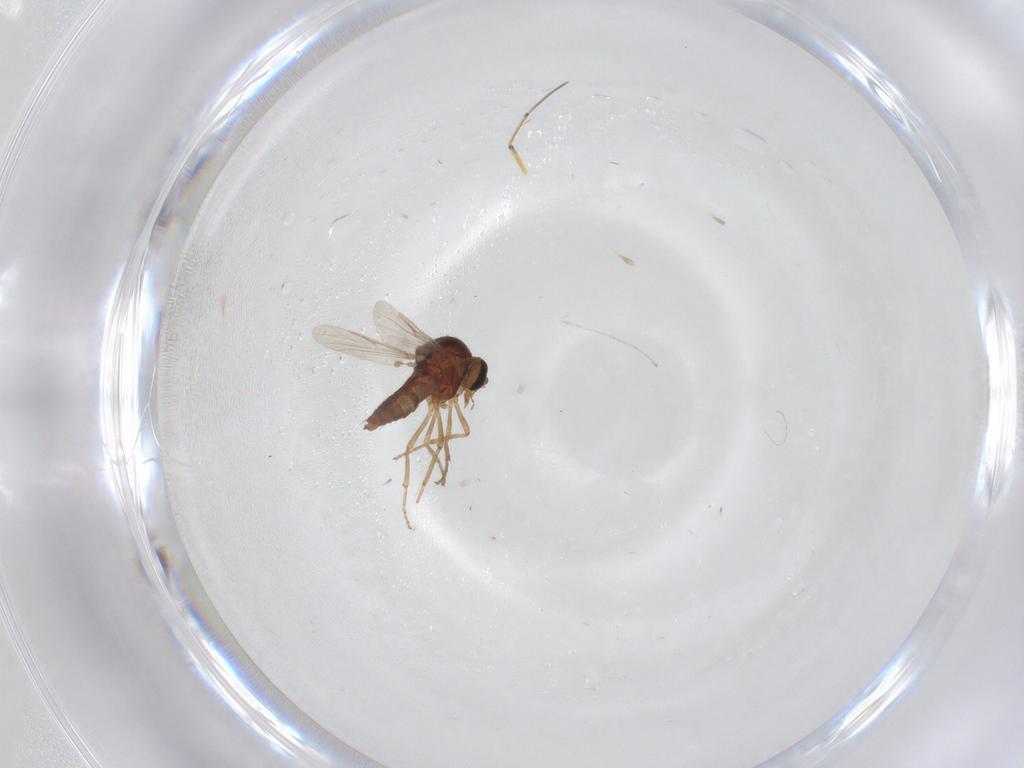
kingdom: Animalia
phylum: Arthropoda
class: Insecta
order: Diptera
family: Ceratopogonidae
